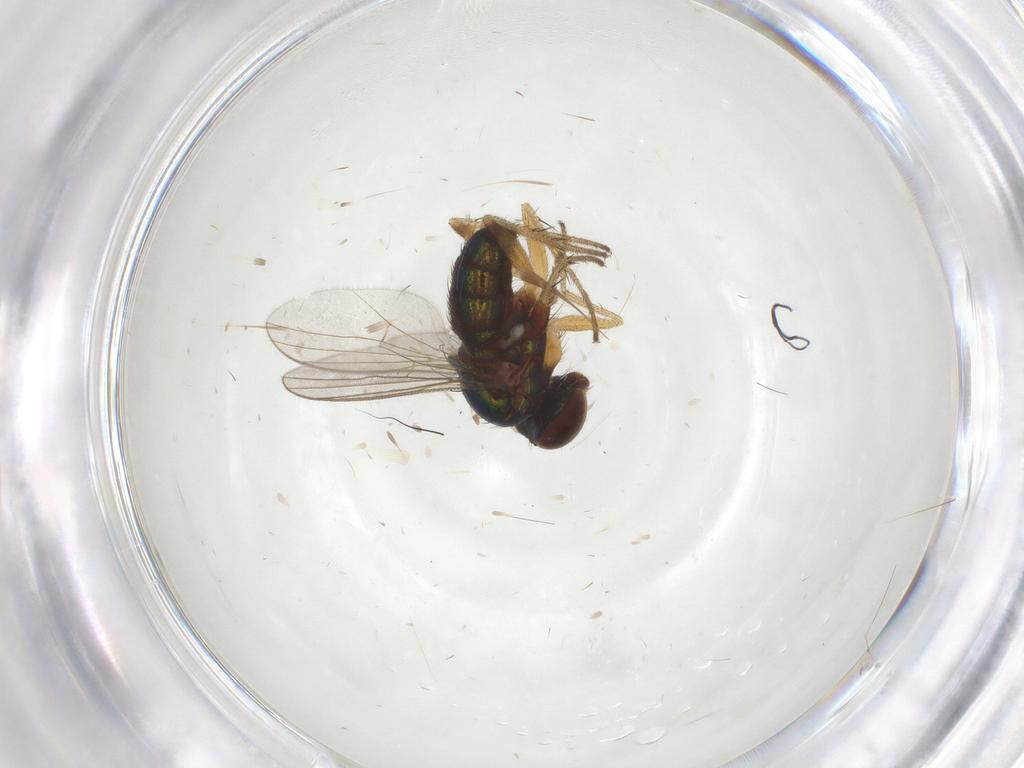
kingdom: Animalia
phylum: Arthropoda
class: Insecta
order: Diptera
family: Dolichopodidae
